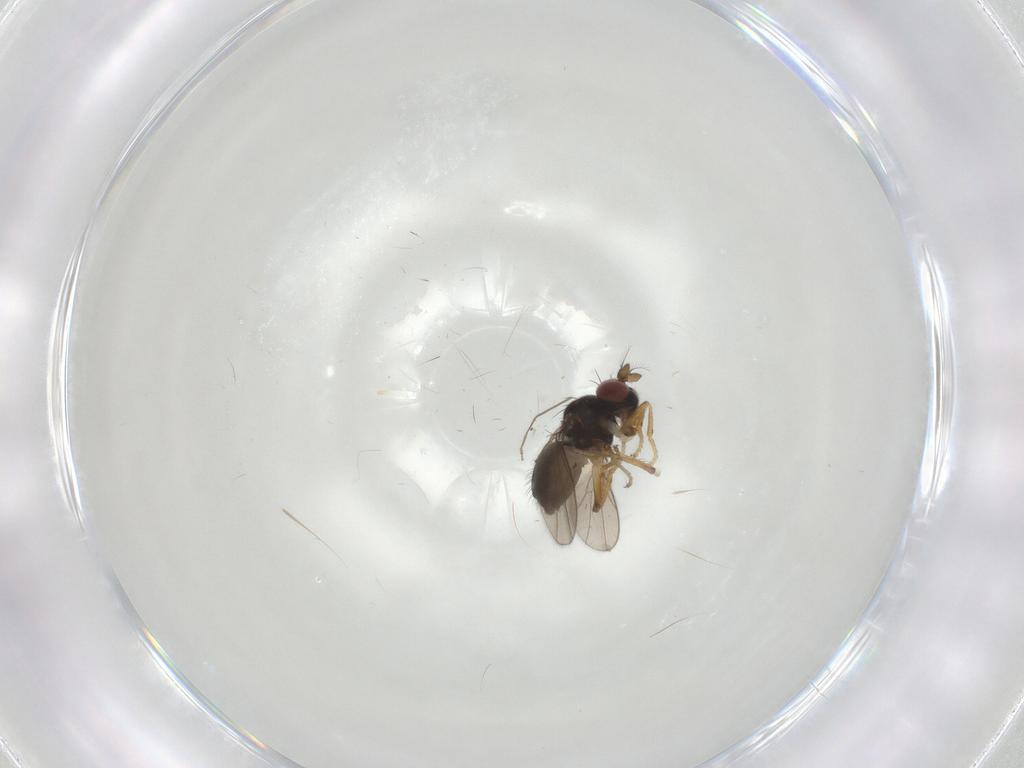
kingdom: Animalia
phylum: Arthropoda
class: Insecta
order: Diptera
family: Ephydridae
